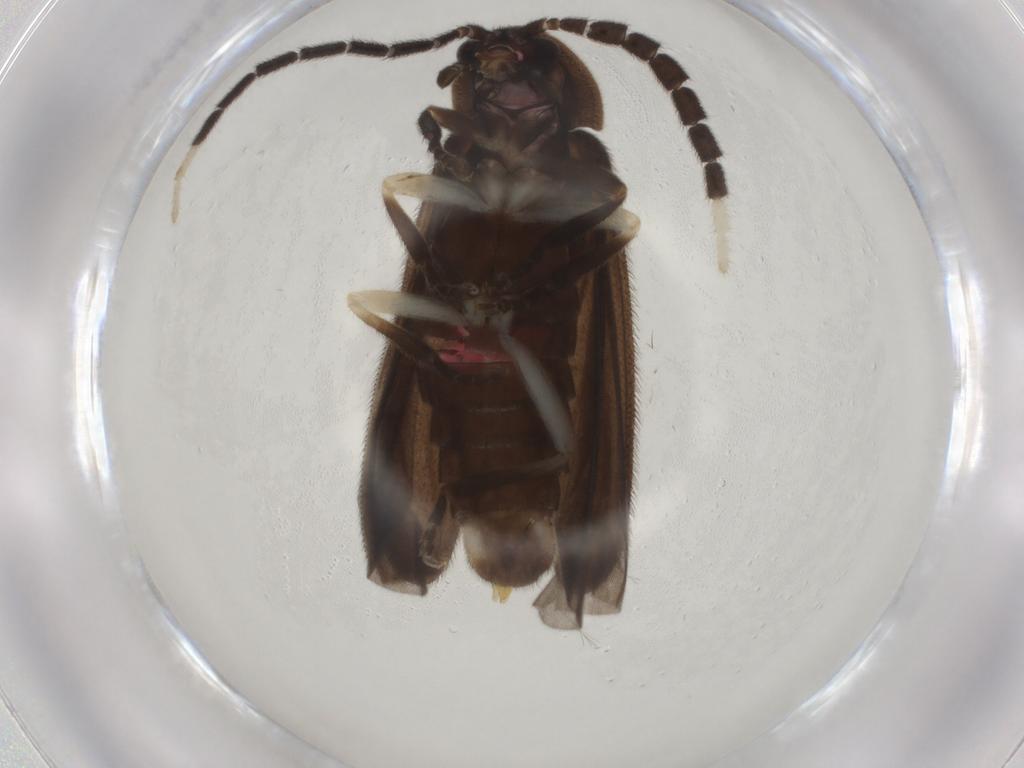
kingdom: Animalia
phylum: Arthropoda
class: Insecta
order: Coleoptera
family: Lampyridae
